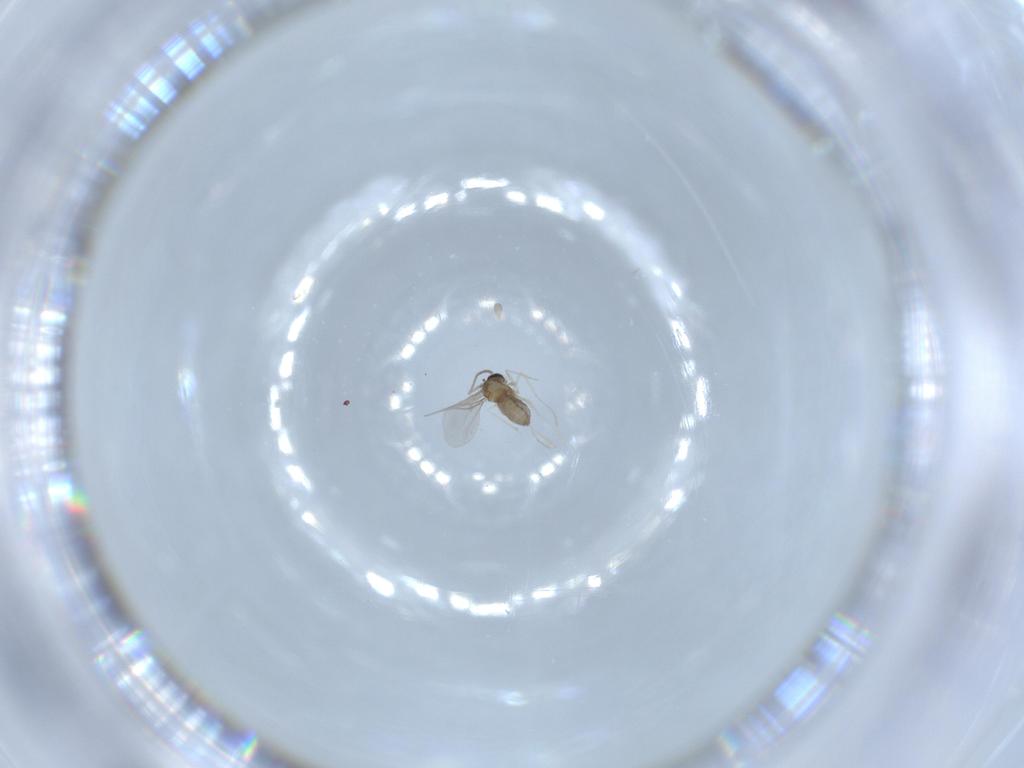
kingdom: Animalia
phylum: Arthropoda
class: Insecta
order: Diptera
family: Cecidomyiidae
